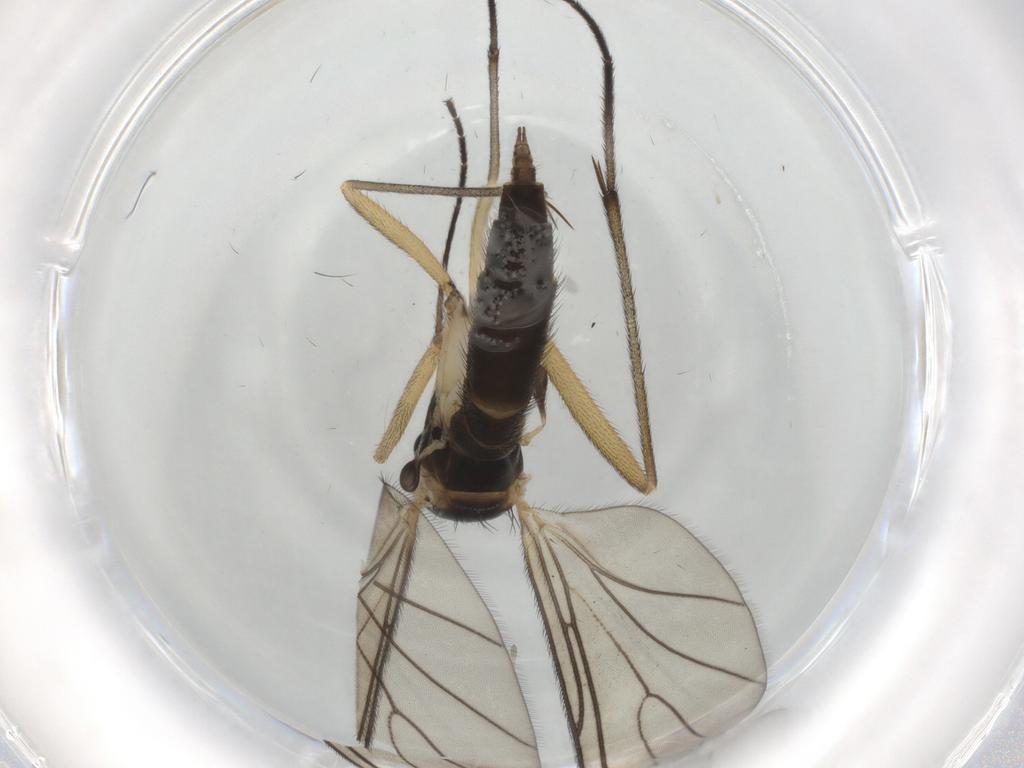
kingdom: Animalia
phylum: Arthropoda
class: Insecta
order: Diptera
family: Sciaridae
